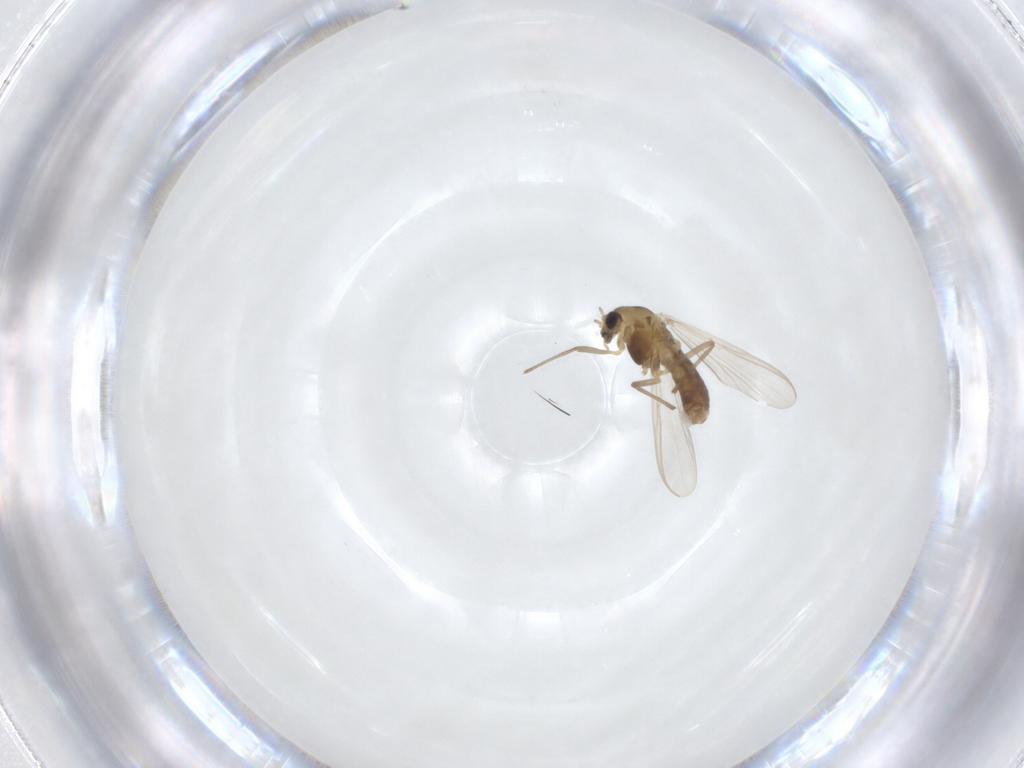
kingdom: Animalia
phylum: Arthropoda
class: Insecta
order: Diptera
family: Chironomidae
